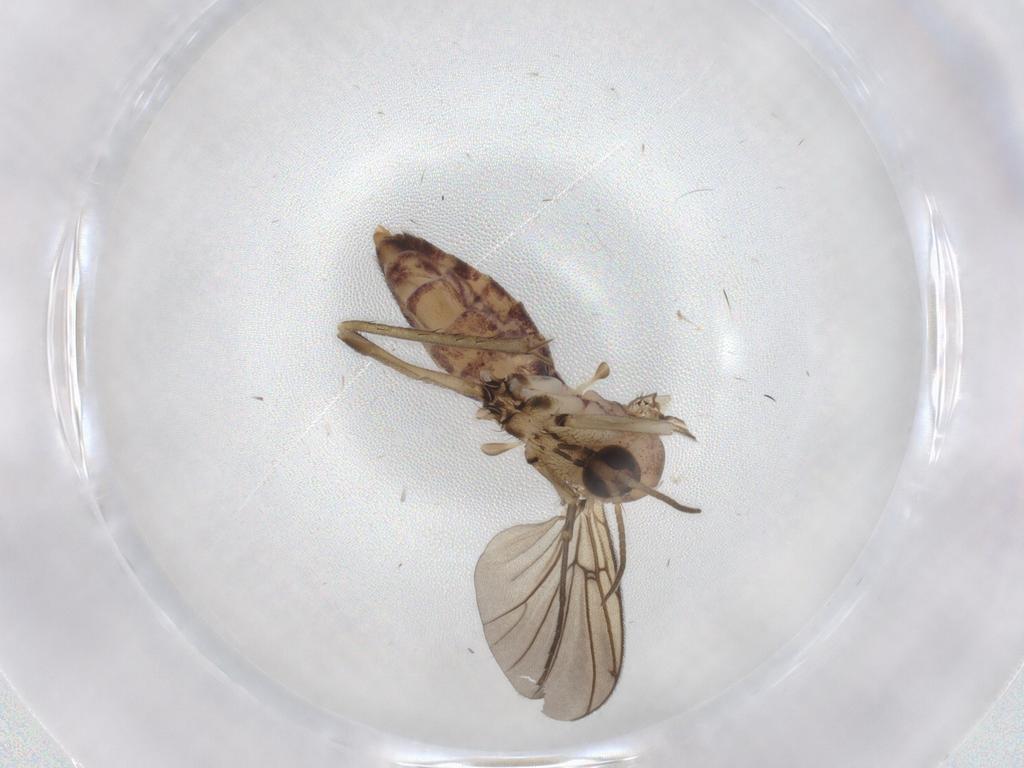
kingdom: Animalia
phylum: Arthropoda
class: Insecta
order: Diptera
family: Mycetophilidae
